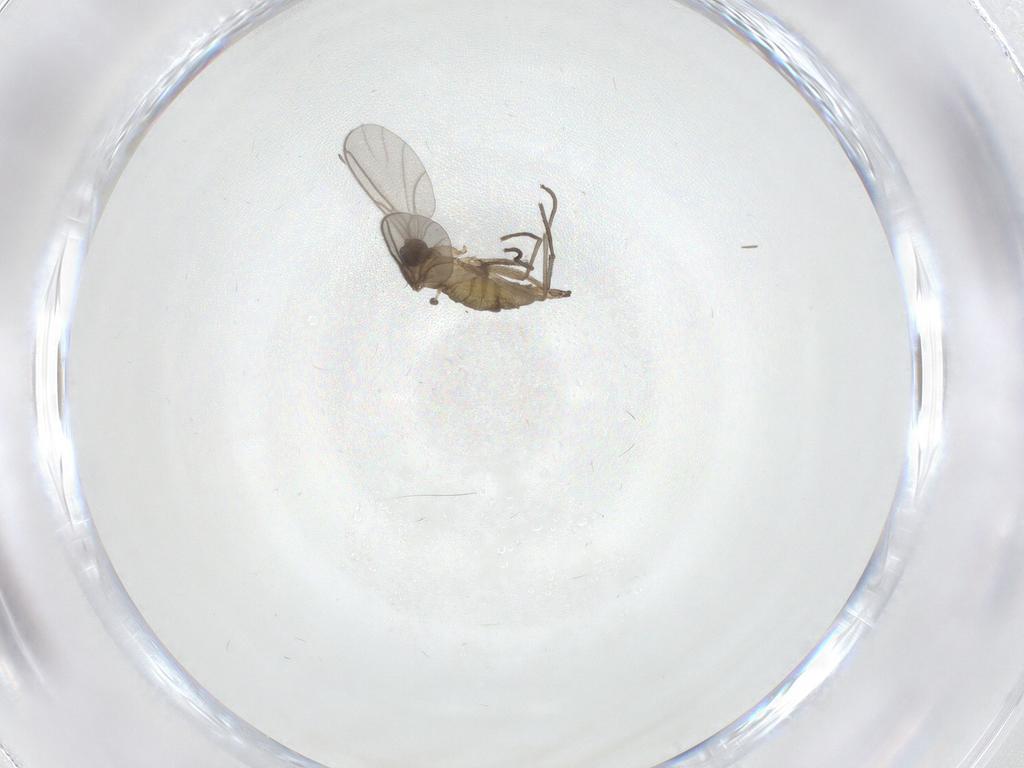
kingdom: Animalia
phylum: Arthropoda
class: Insecta
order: Diptera
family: Sciaridae
